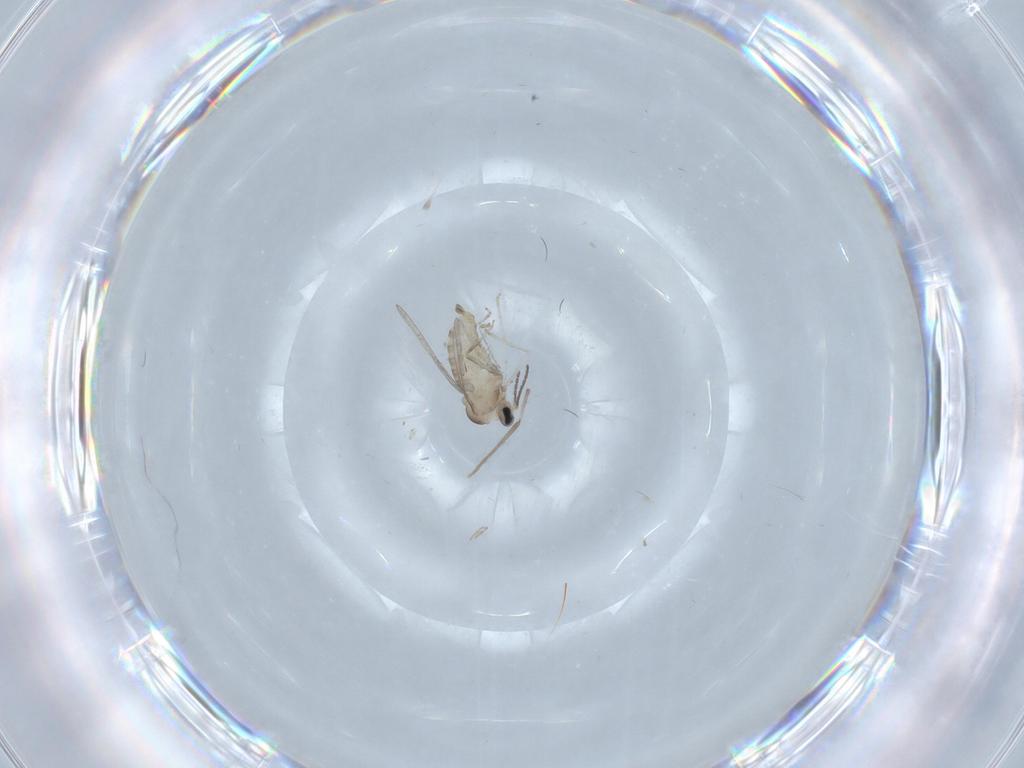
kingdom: Animalia
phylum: Arthropoda
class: Insecta
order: Diptera
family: Cecidomyiidae
